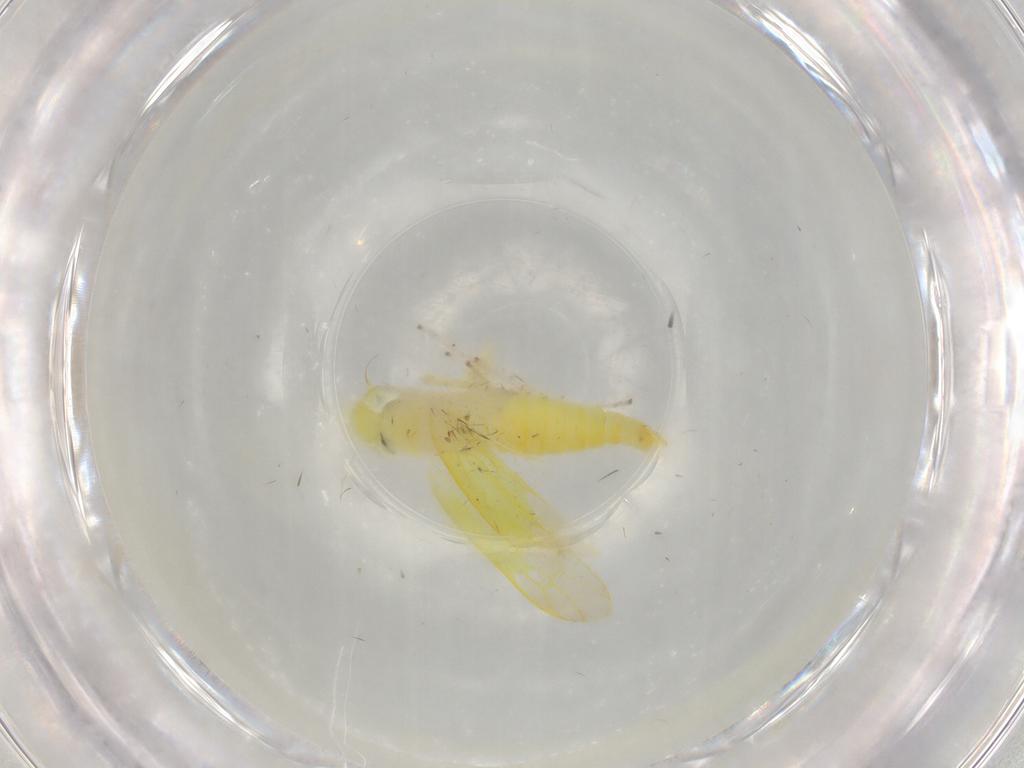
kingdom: Animalia
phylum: Arthropoda
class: Insecta
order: Hemiptera
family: Cicadellidae
